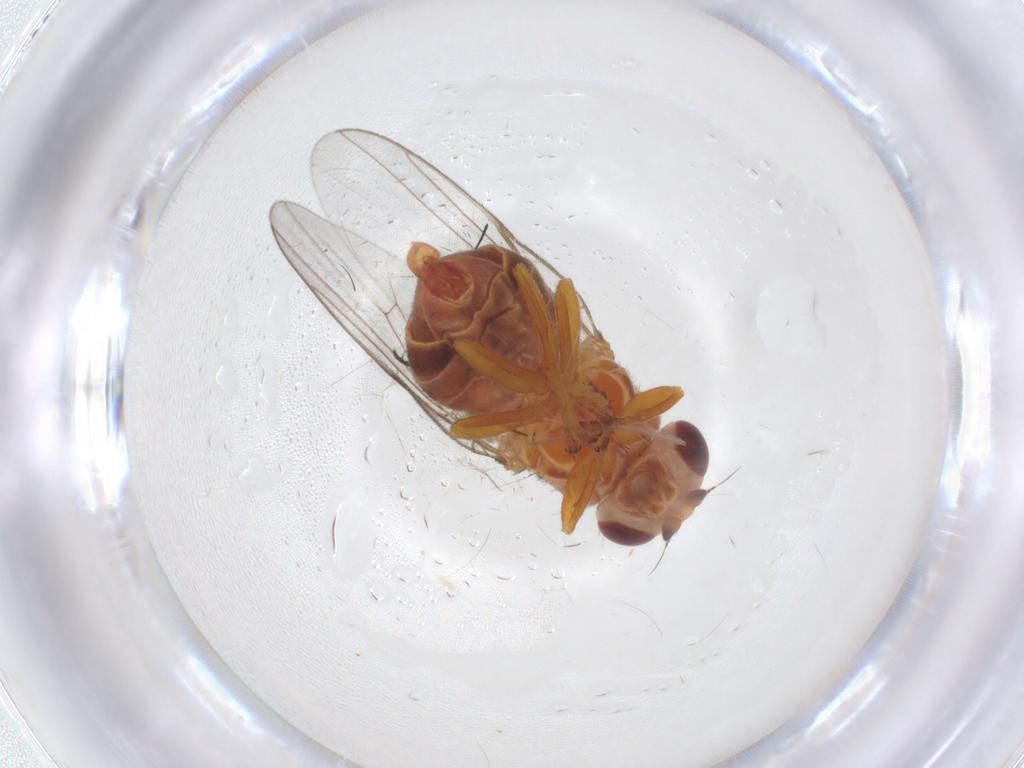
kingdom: Animalia
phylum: Arthropoda
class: Insecta
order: Diptera
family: Chloropidae
